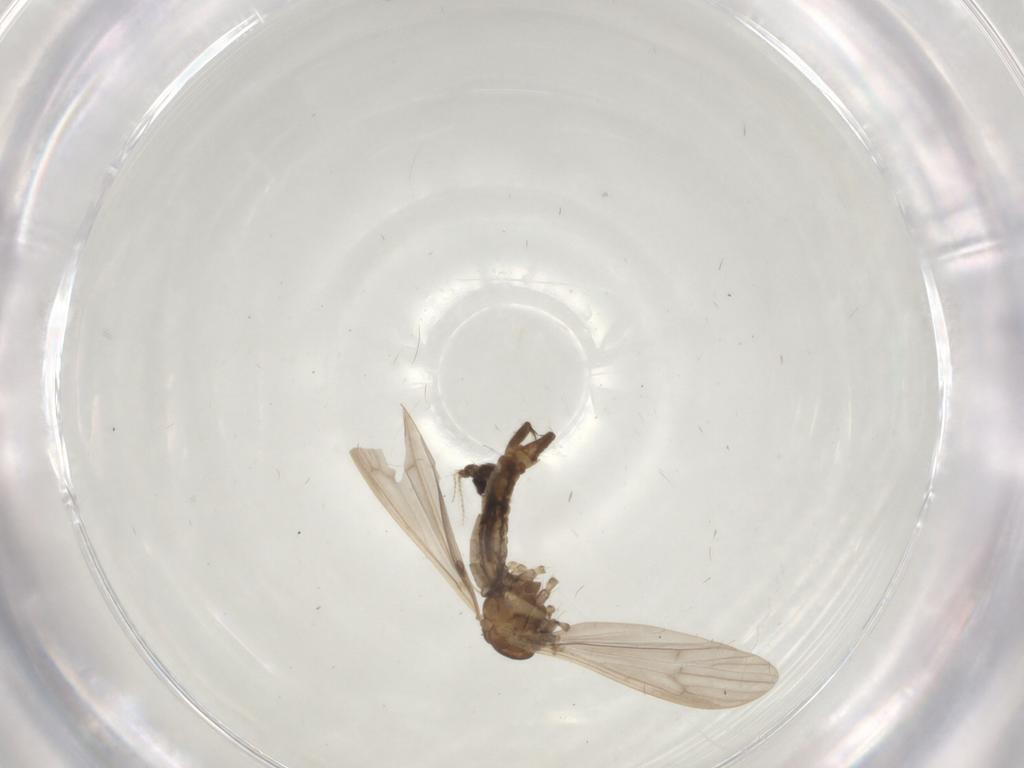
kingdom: Animalia
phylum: Arthropoda
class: Insecta
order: Diptera
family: Limoniidae
